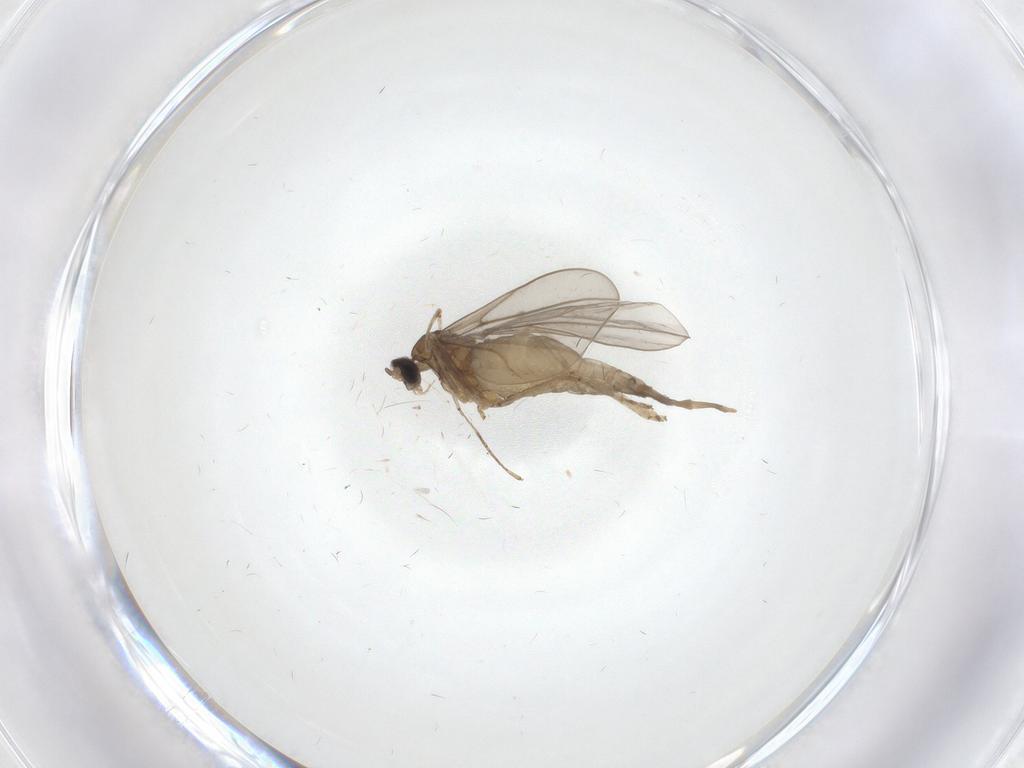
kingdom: Animalia
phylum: Arthropoda
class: Insecta
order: Diptera
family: Cecidomyiidae
